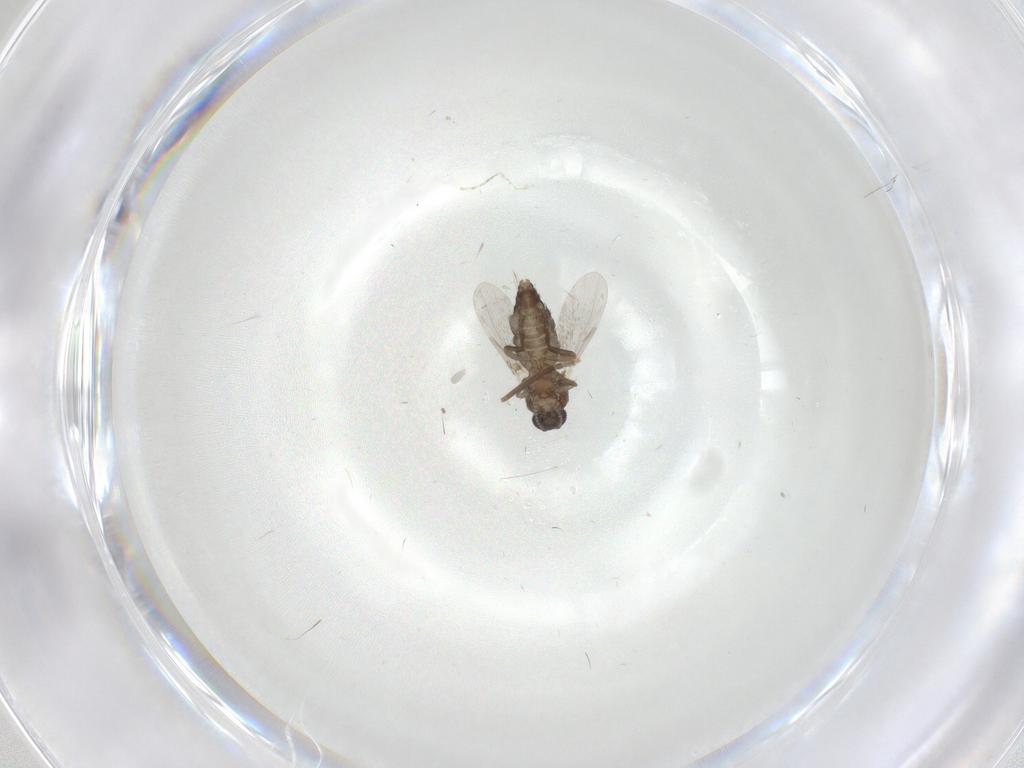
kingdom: Animalia
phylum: Arthropoda
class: Insecta
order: Diptera
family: Ceratopogonidae
